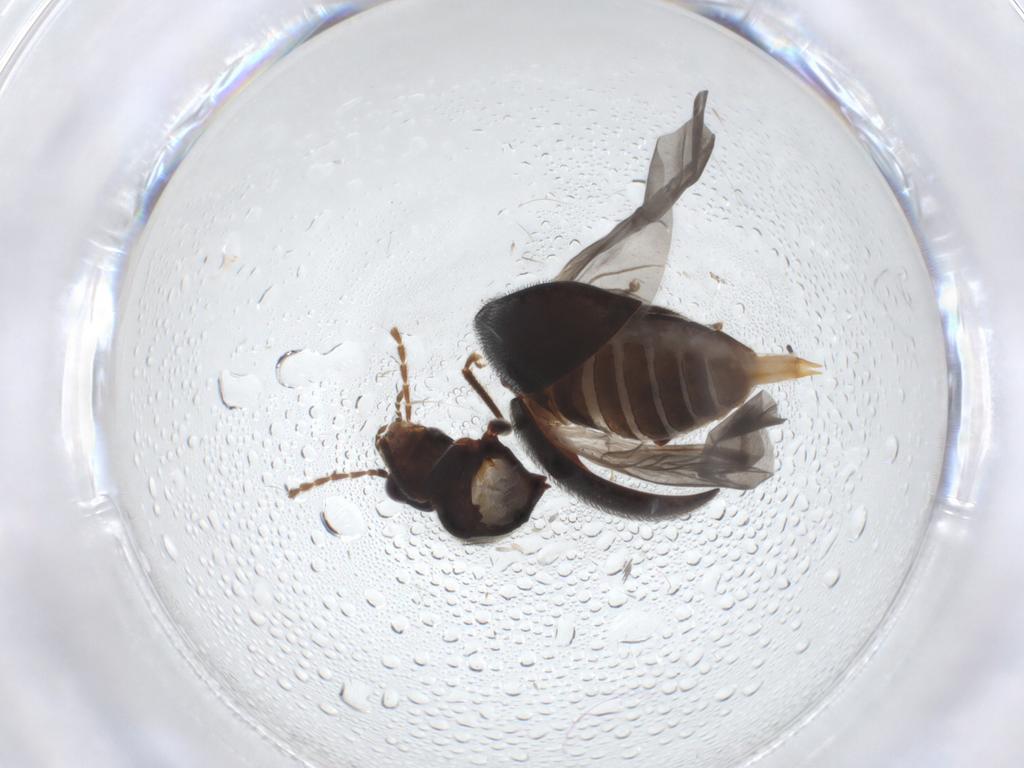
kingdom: Animalia
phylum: Arthropoda
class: Insecta
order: Coleoptera
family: Ptilodactylidae
